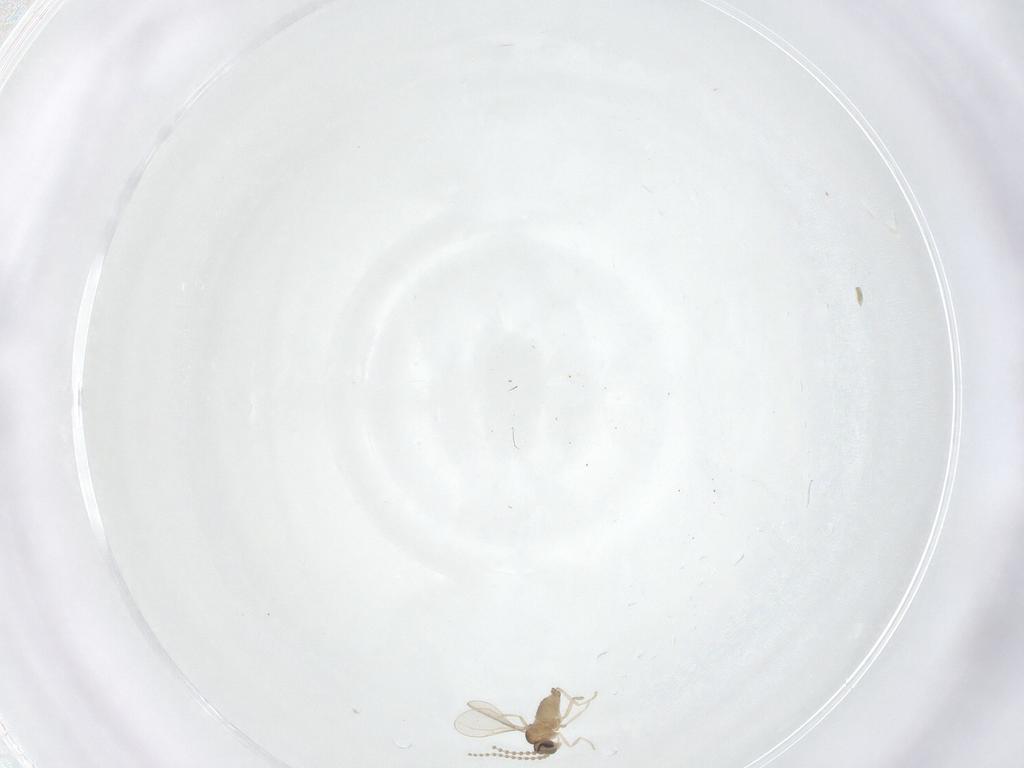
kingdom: Animalia
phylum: Arthropoda
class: Insecta
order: Diptera
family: Cecidomyiidae
